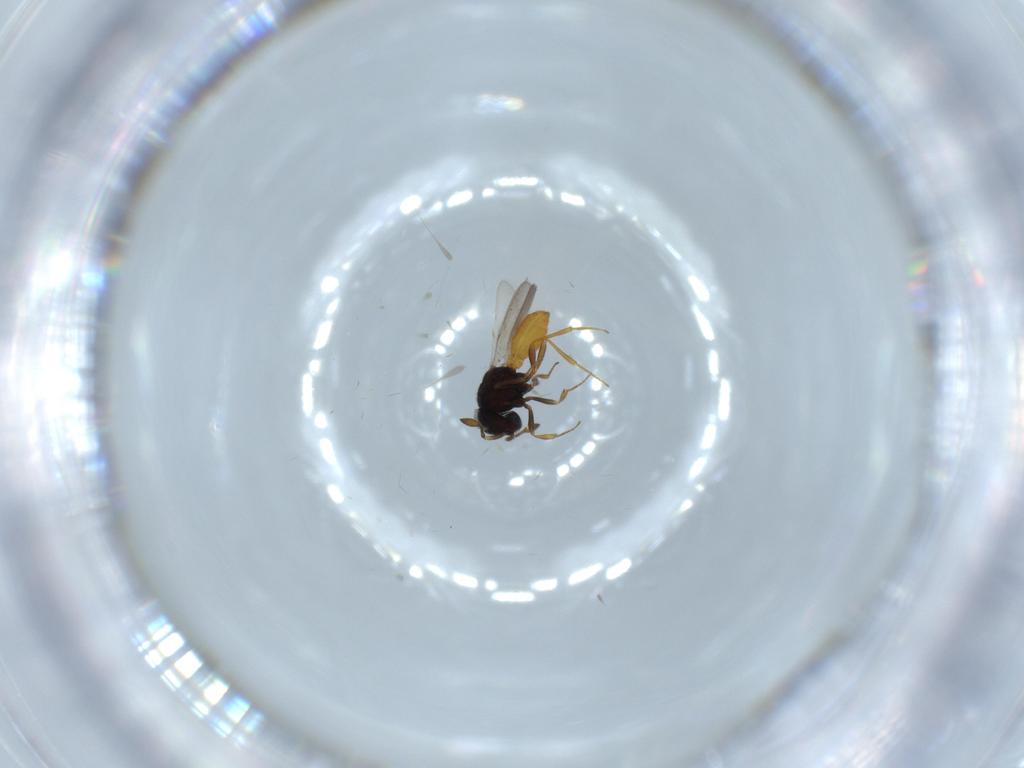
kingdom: Animalia
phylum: Arthropoda
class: Insecta
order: Hymenoptera
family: Scelionidae
